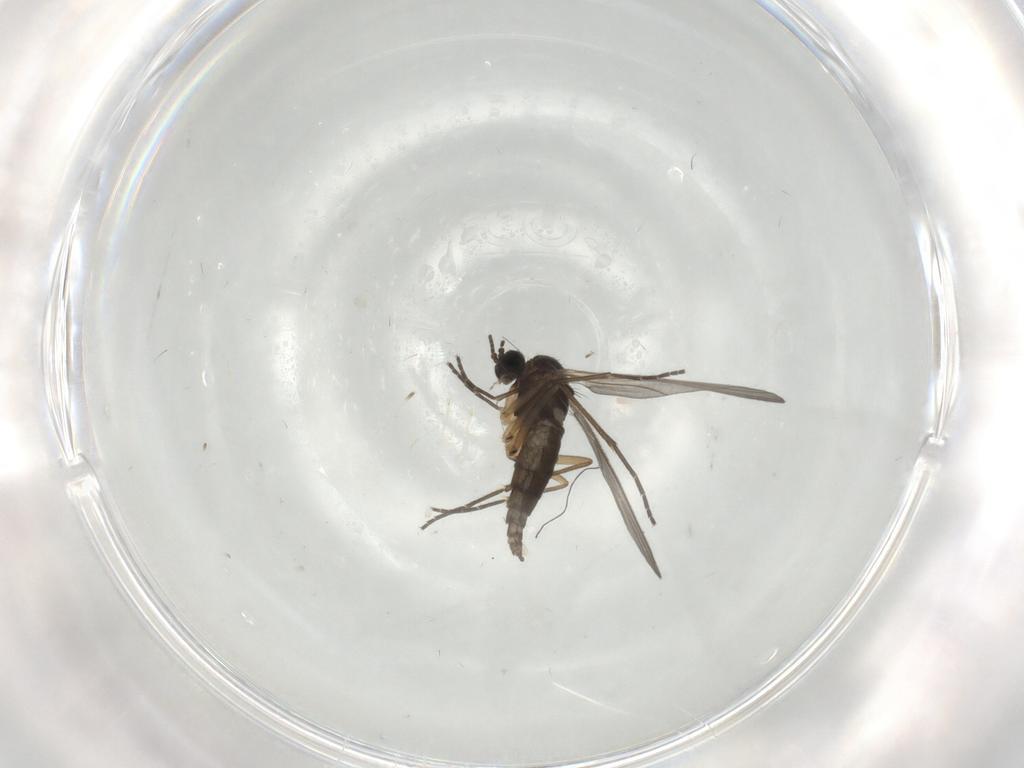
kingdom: Animalia
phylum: Arthropoda
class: Insecta
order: Diptera
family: Sciaridae
